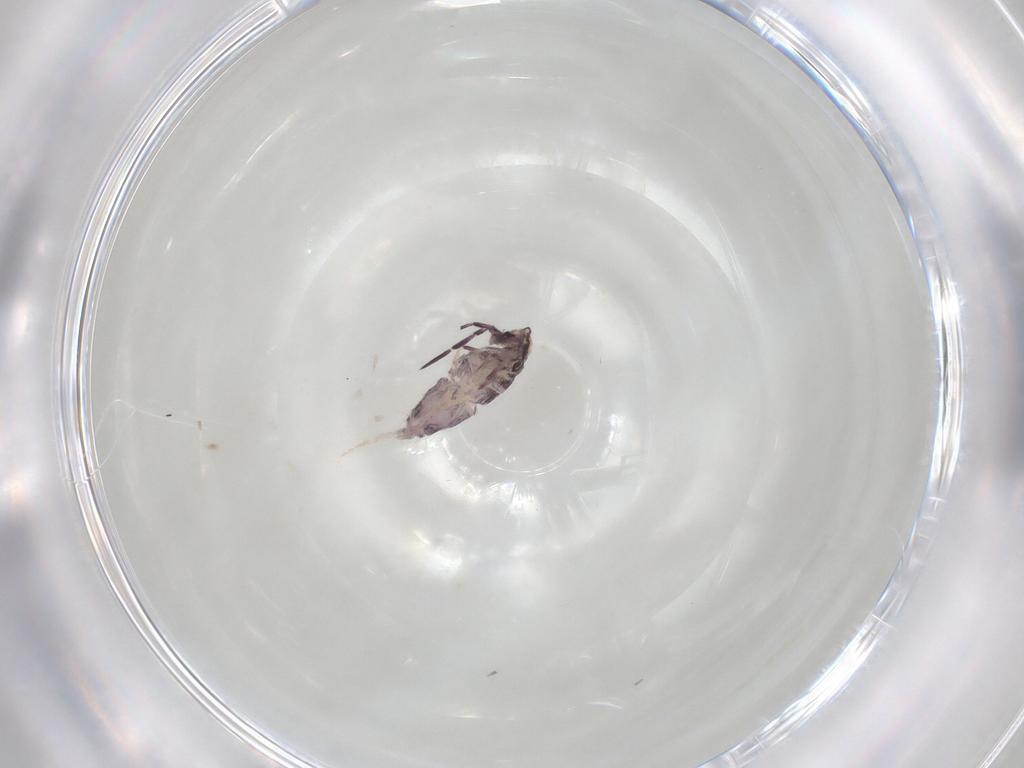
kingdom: Animalia
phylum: Arthropoda
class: Collembola
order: Poduromorpha
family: Hypogastruridae
